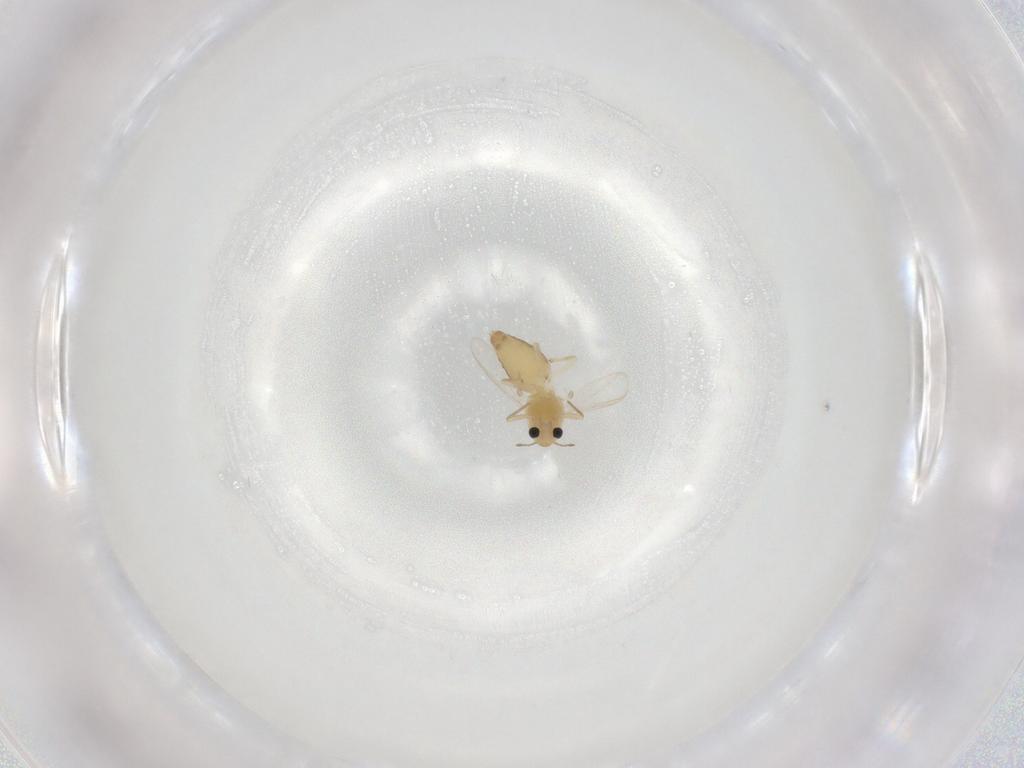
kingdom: Animalia
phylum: Arthropoda
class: Insecta
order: Diptera
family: Chironomidae
